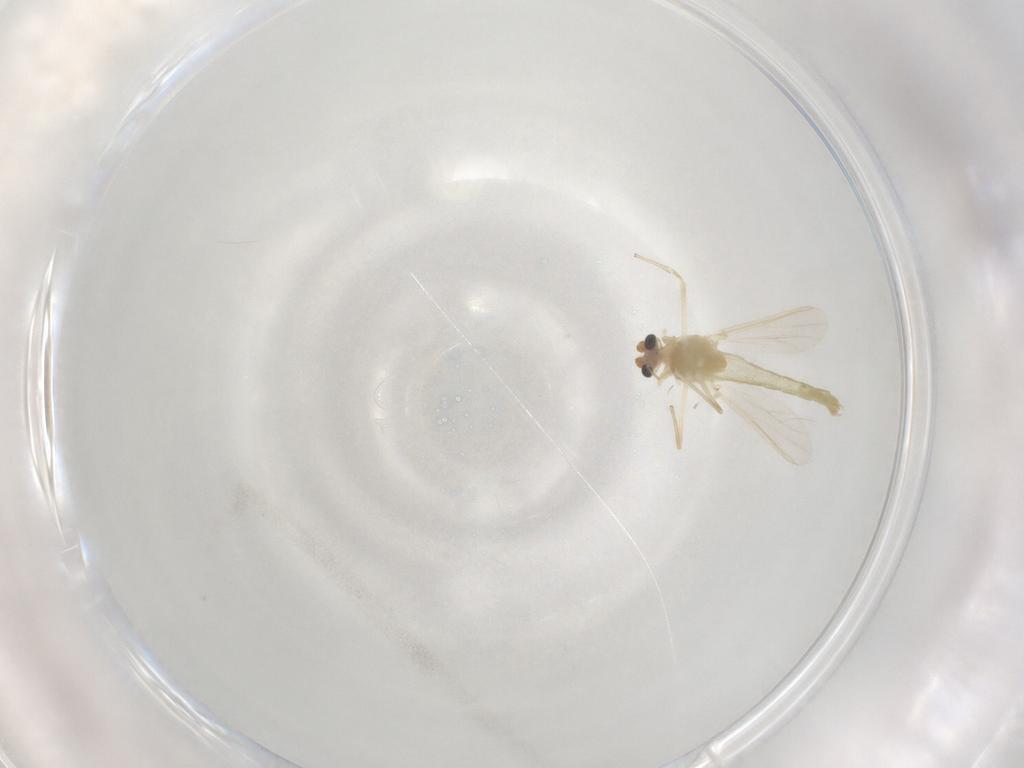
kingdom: Animalia
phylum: Arthropoda
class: Insecta
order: Diptera
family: Chironomidae
